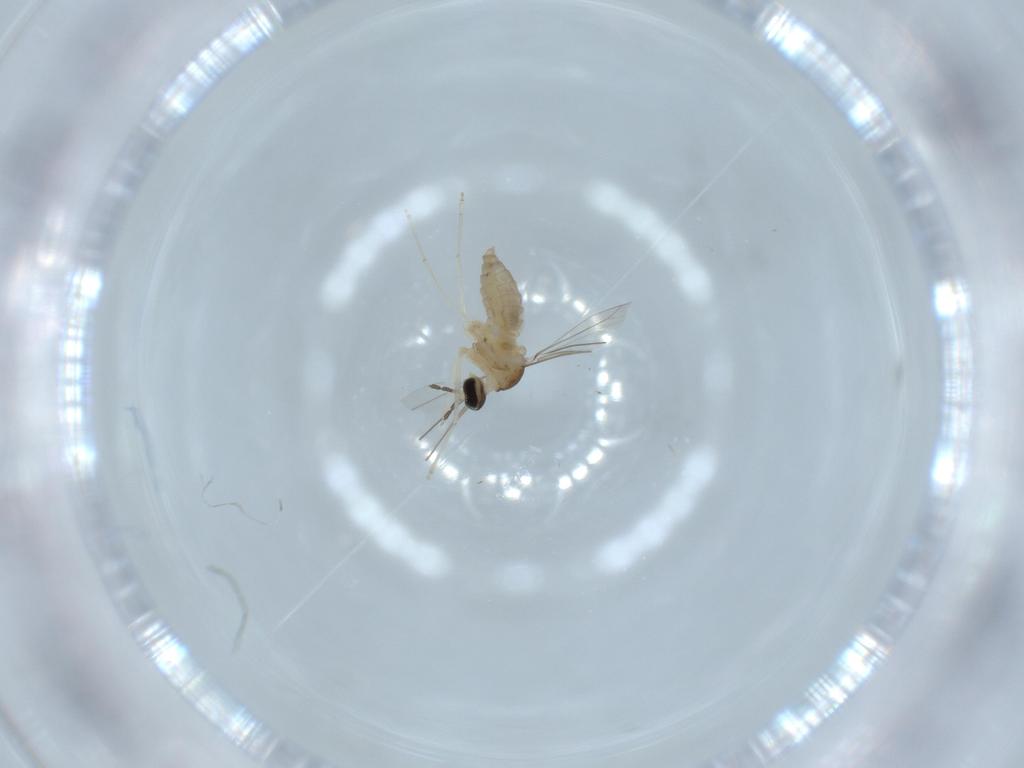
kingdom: Animalia
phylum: Arthropoda
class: Insecta
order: Diptera
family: Cecidomyiidae
